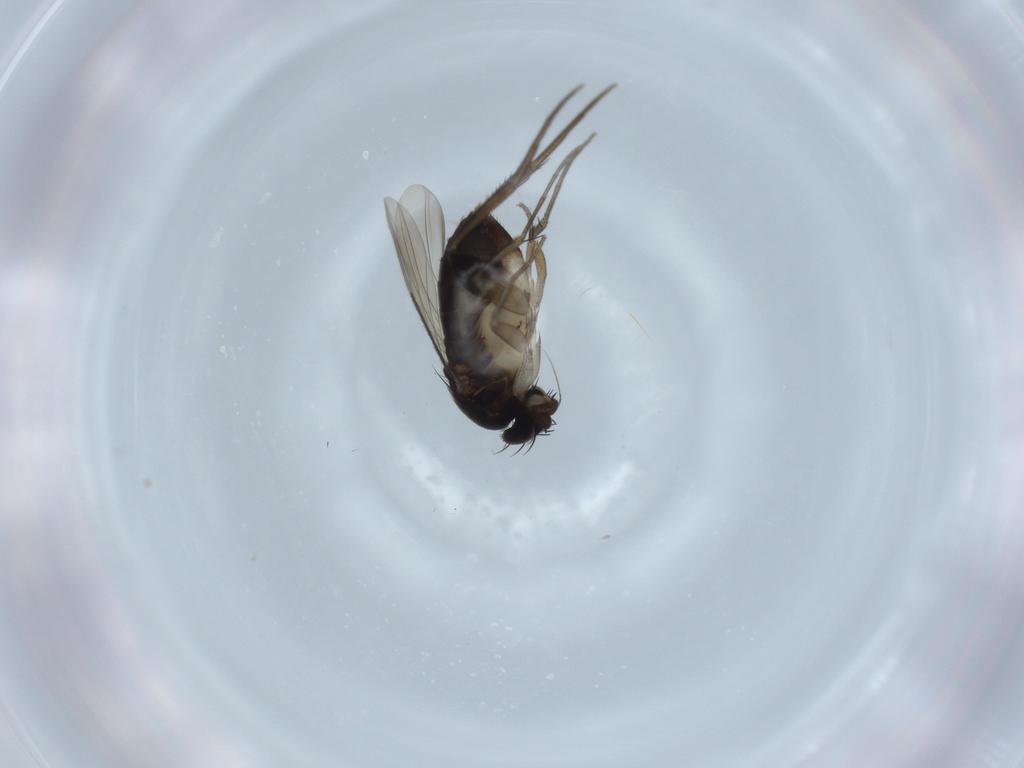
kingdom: Animalia
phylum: Arthropoda
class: Insecta
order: Diptera
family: Phoridae
